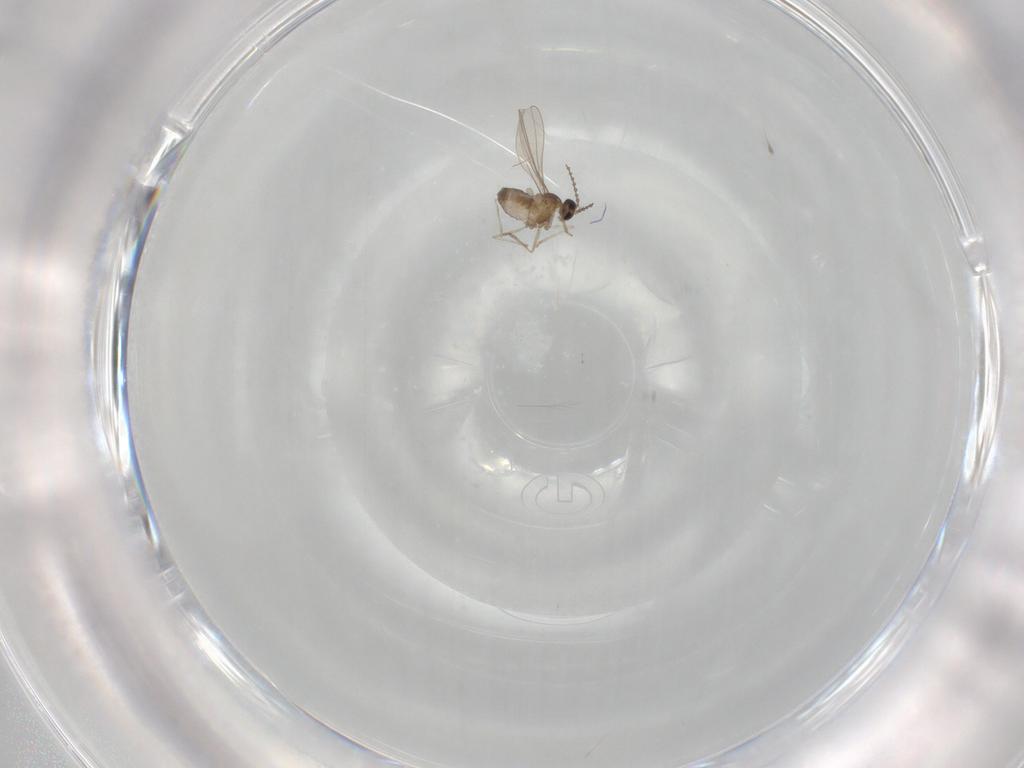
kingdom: Animalia
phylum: Arthropoda
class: Insecta
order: Diptera
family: Cecidomyiidae
